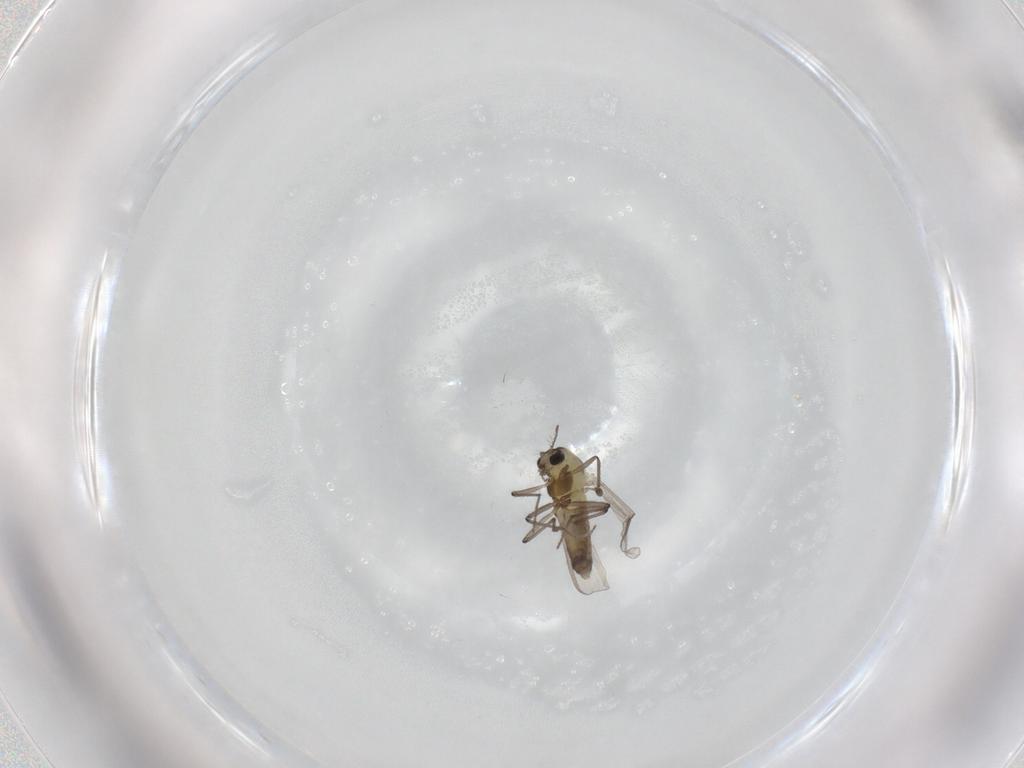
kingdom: Animalia
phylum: Arthropoda
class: Insecta
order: Diptera
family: Chironomidae
